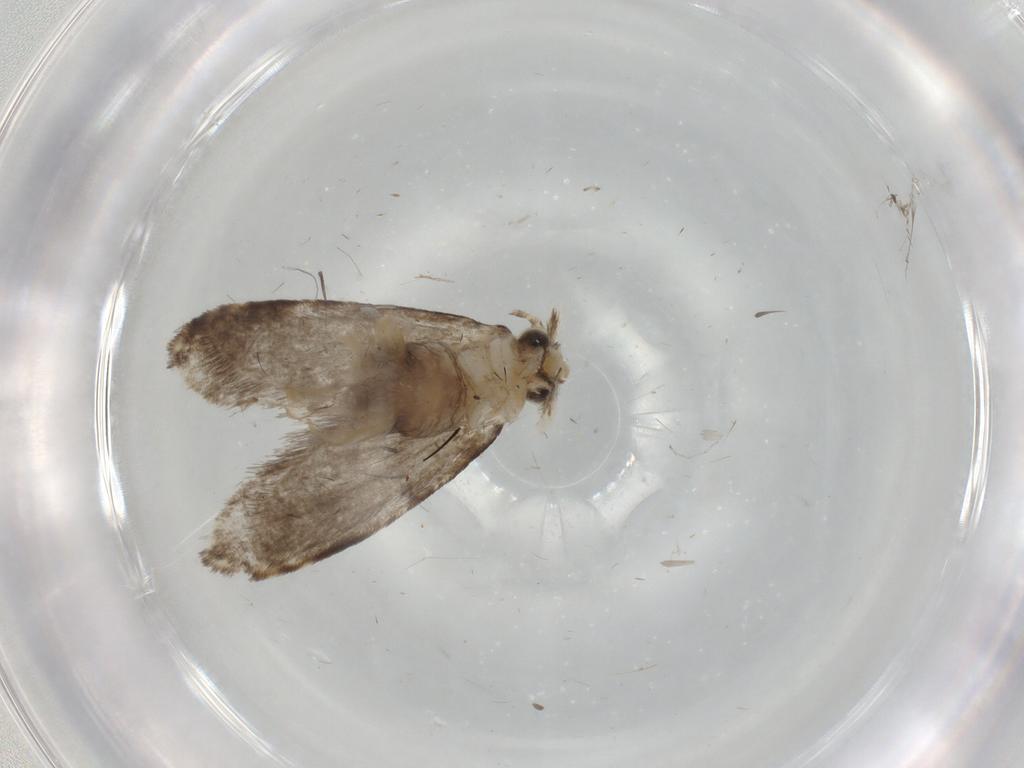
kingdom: Animalia
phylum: Arthropoda
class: Insecta
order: Lepidoptera
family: Tineidae
